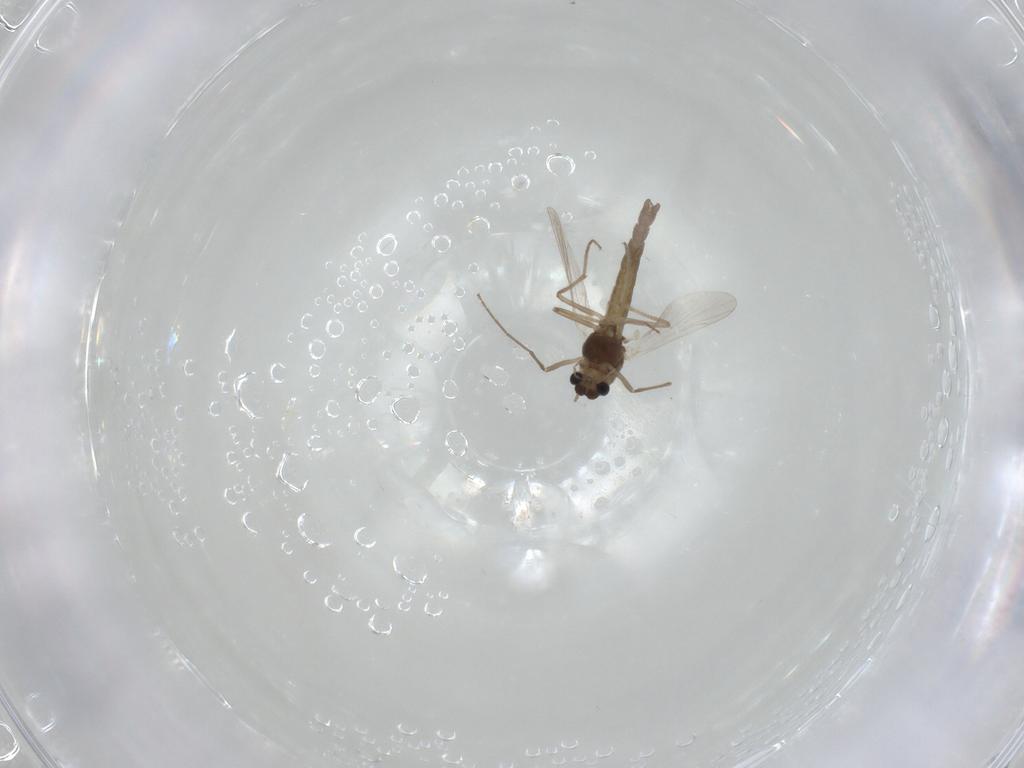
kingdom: Animalia
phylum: Arthropoda
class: Insecta
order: Diptera
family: Chironomidae
